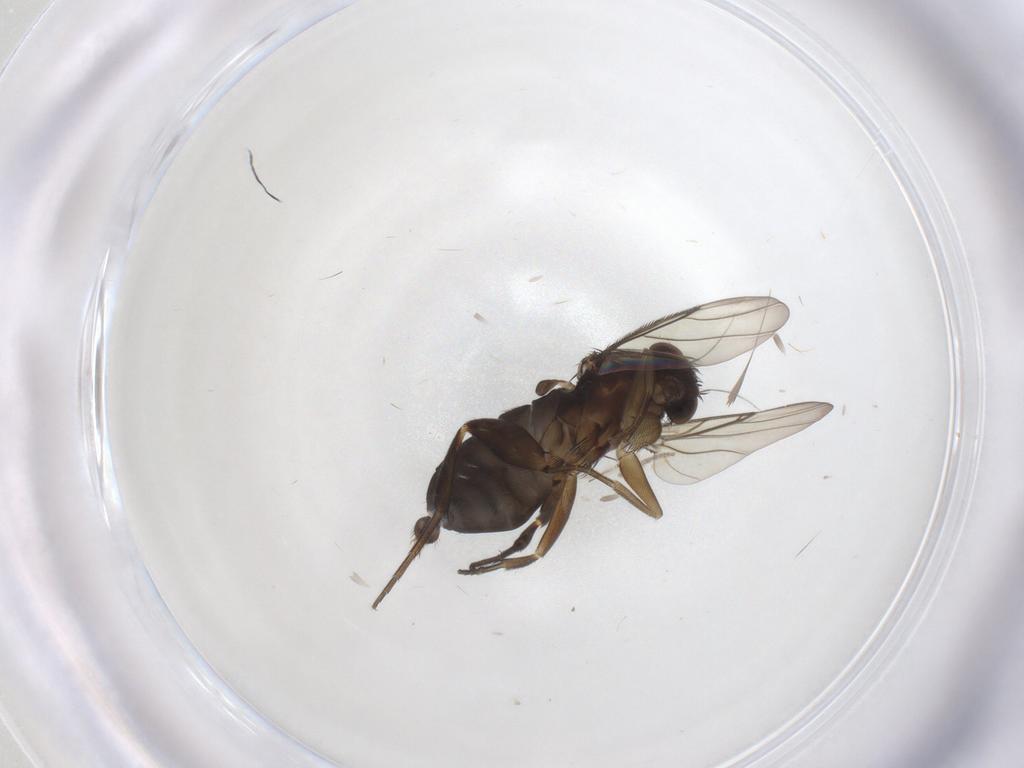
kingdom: Animalia
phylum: Arthropoda
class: Insecta
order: Diptera
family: Phoridae
